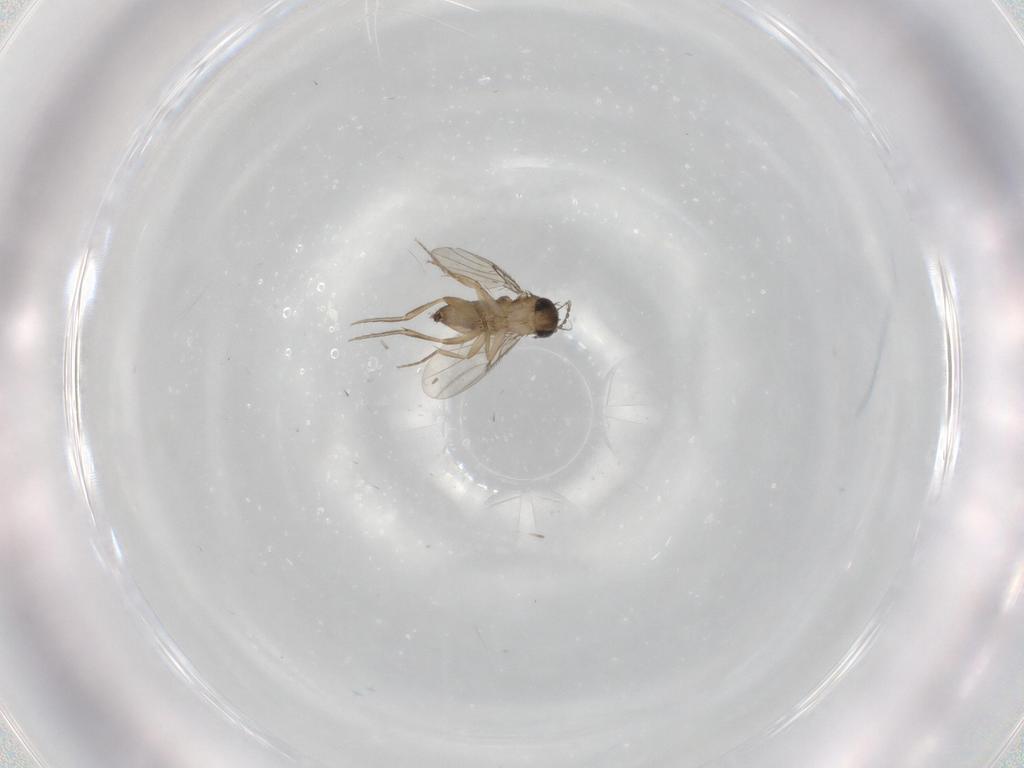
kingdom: Animalia
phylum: Arthropoda
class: Insecta
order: Diptera
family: Phoridae
